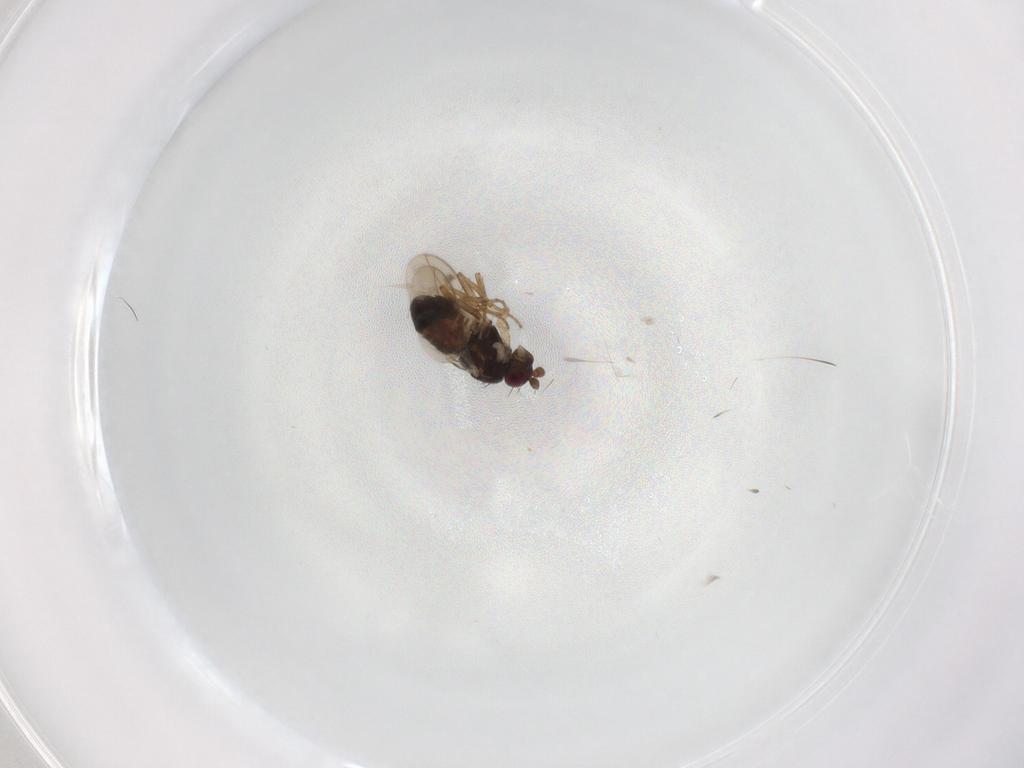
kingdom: Animalia
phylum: Arthropoda
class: Insecta
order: Diptera
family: Sphaeroceridae
